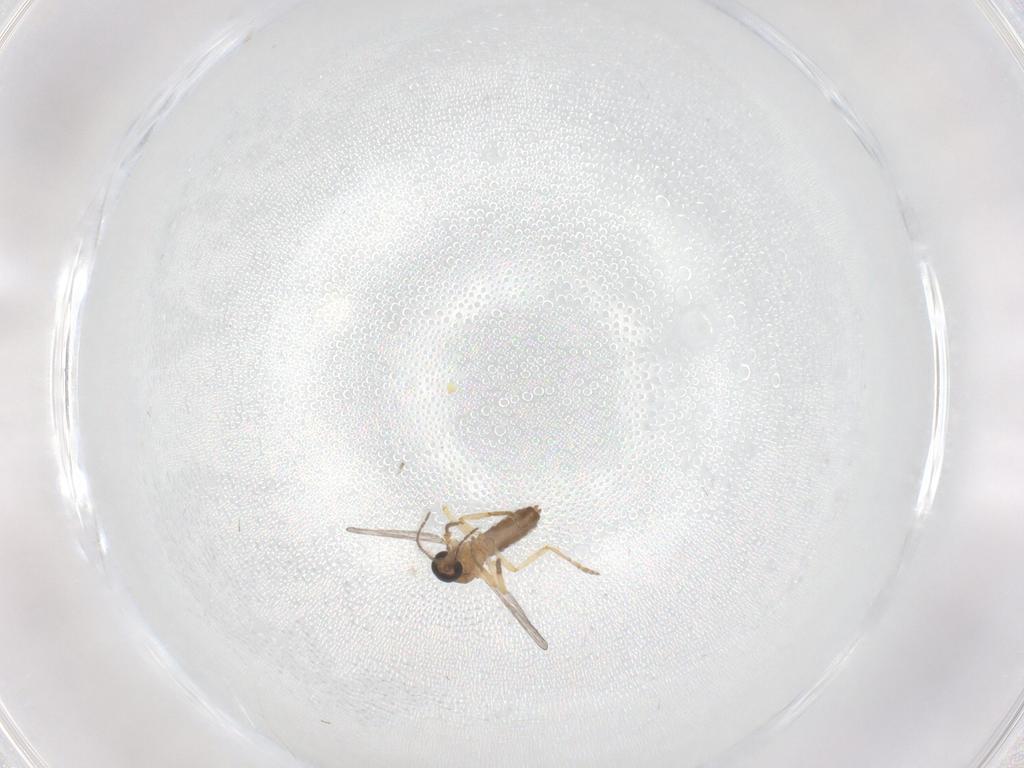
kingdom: Animalia
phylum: Arthropoda
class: Insecta
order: Diptera
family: Ceratopogonidae
